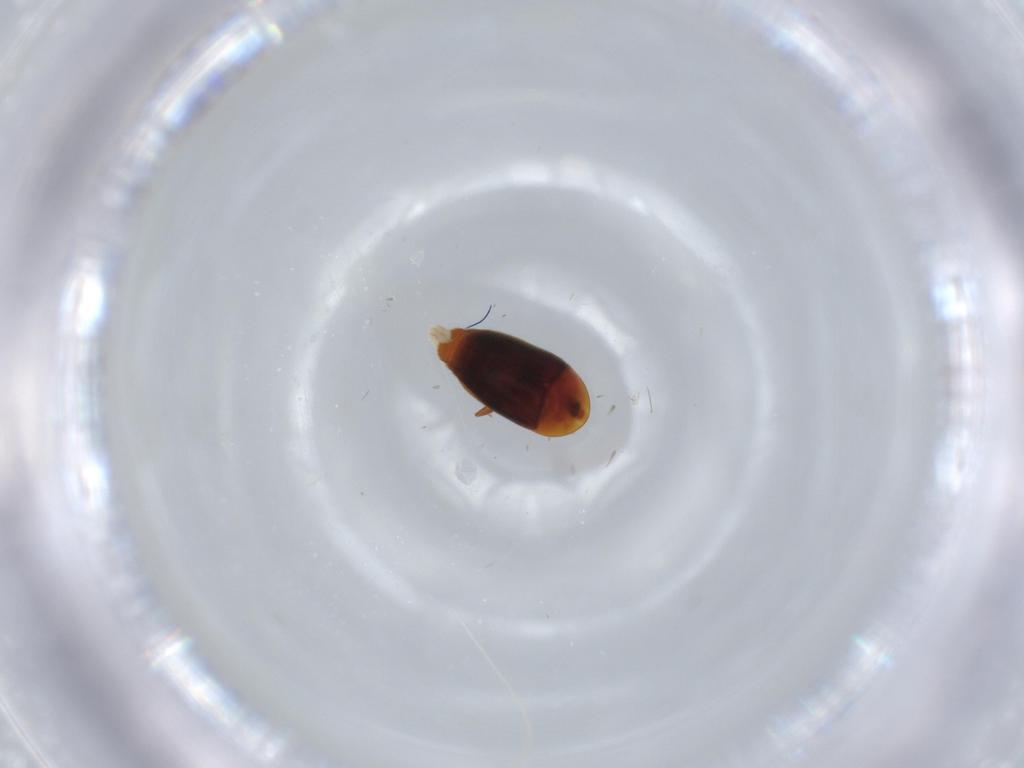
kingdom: Animalia
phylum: Arthropoda
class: Insecta
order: Coleoptera
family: Corylophidae
